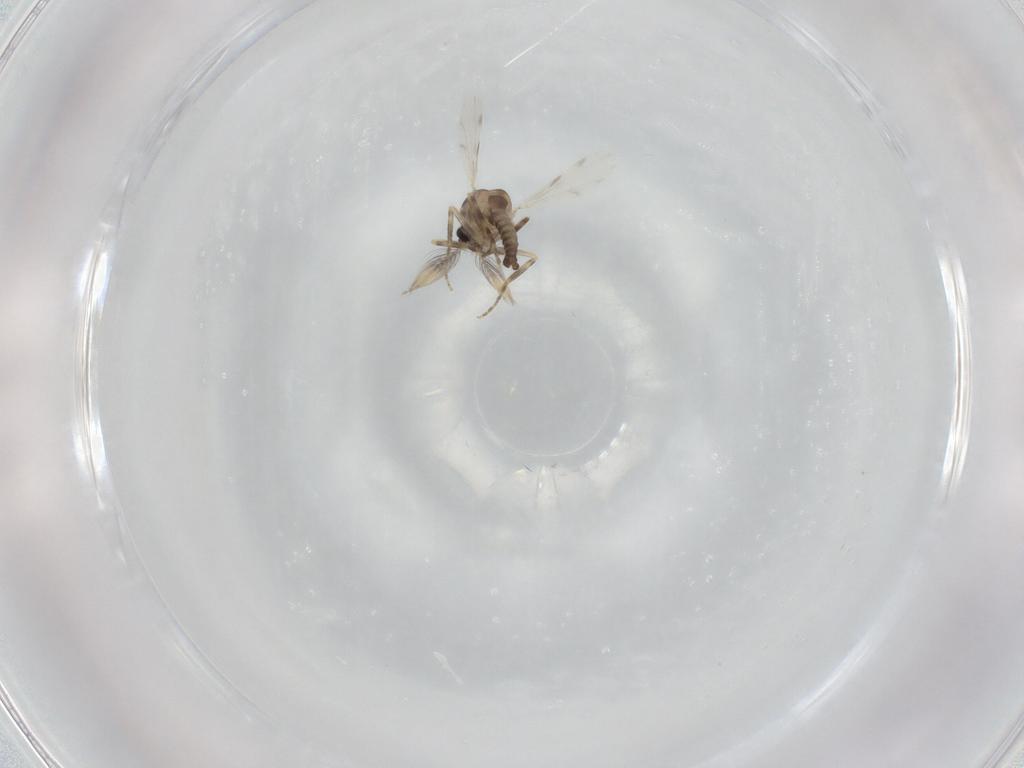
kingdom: Animalia
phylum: Arthropoda
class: Insecta
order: Diptera
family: Ceratopogonidae
